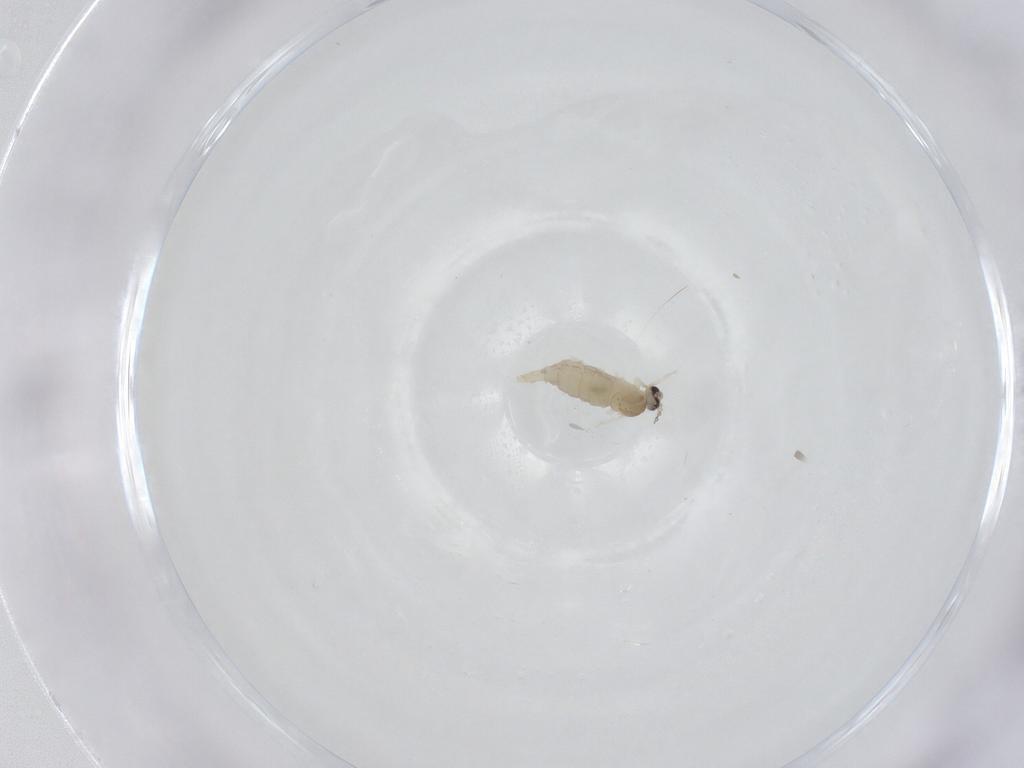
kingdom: Animalia
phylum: Arthropoda
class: Insecta
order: Diptera
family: Cecidomyiidae
